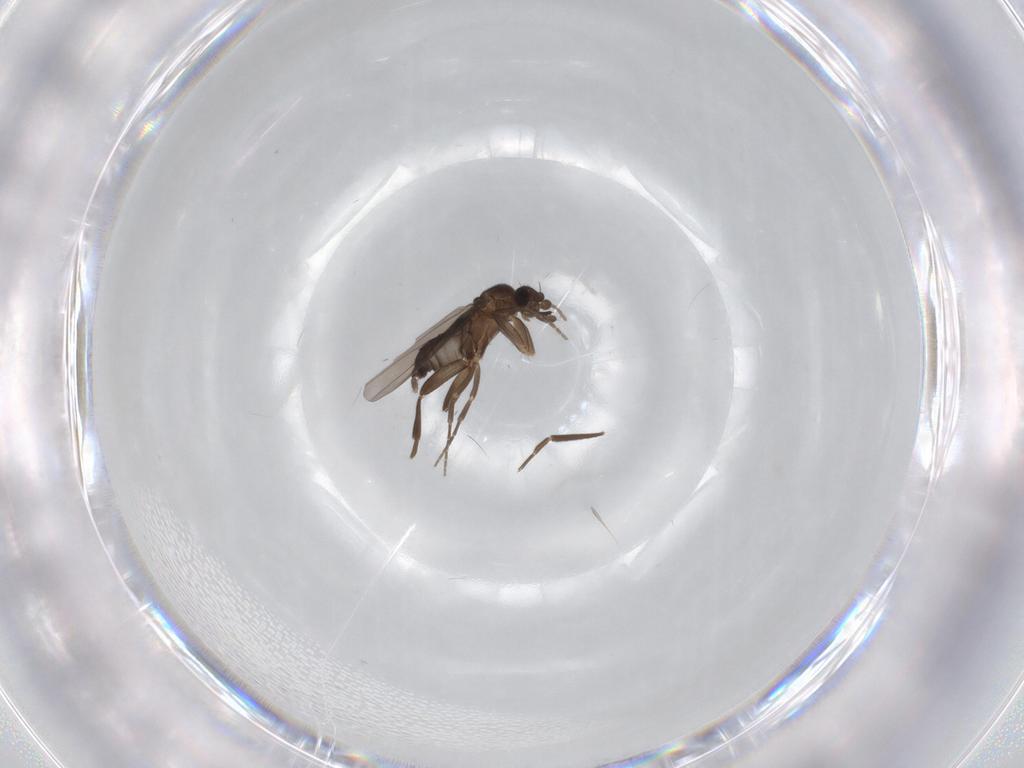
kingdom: Animalia
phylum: Arthropoda
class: Insecta
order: Diptera
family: Phoridae
